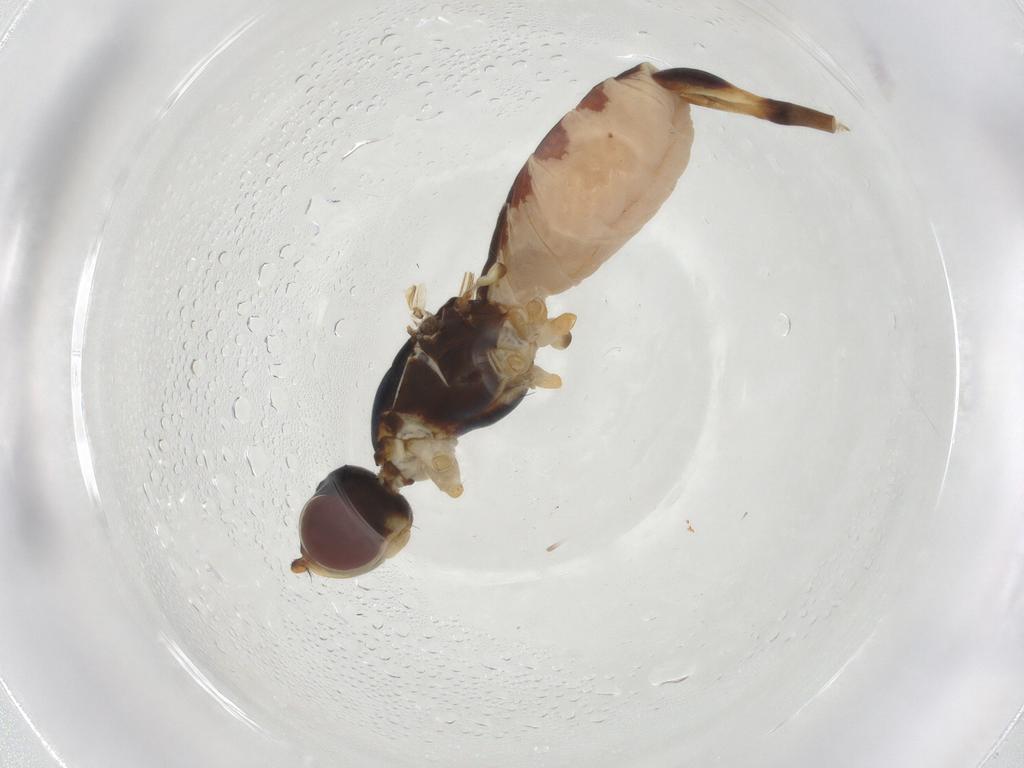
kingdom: Animalia
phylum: Arthropoda
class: Insecta
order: Diptera
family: Micropezidae
